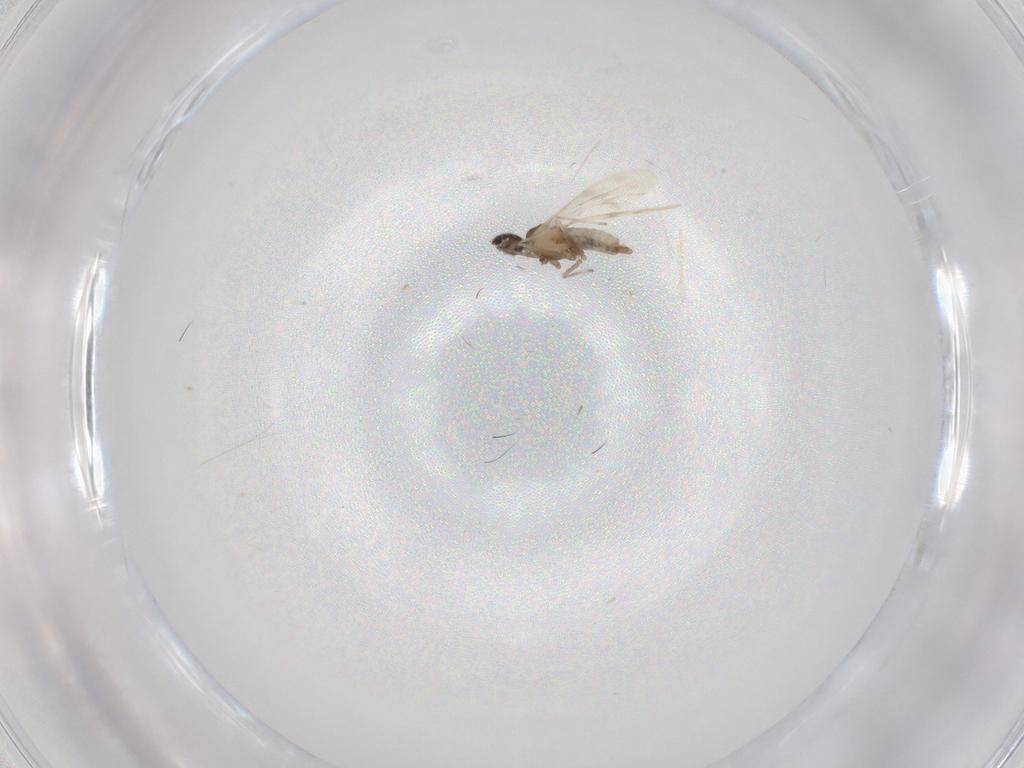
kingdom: Animalia
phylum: Arthropoda
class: Insecta
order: Diptera
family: Cecidomyiidae
